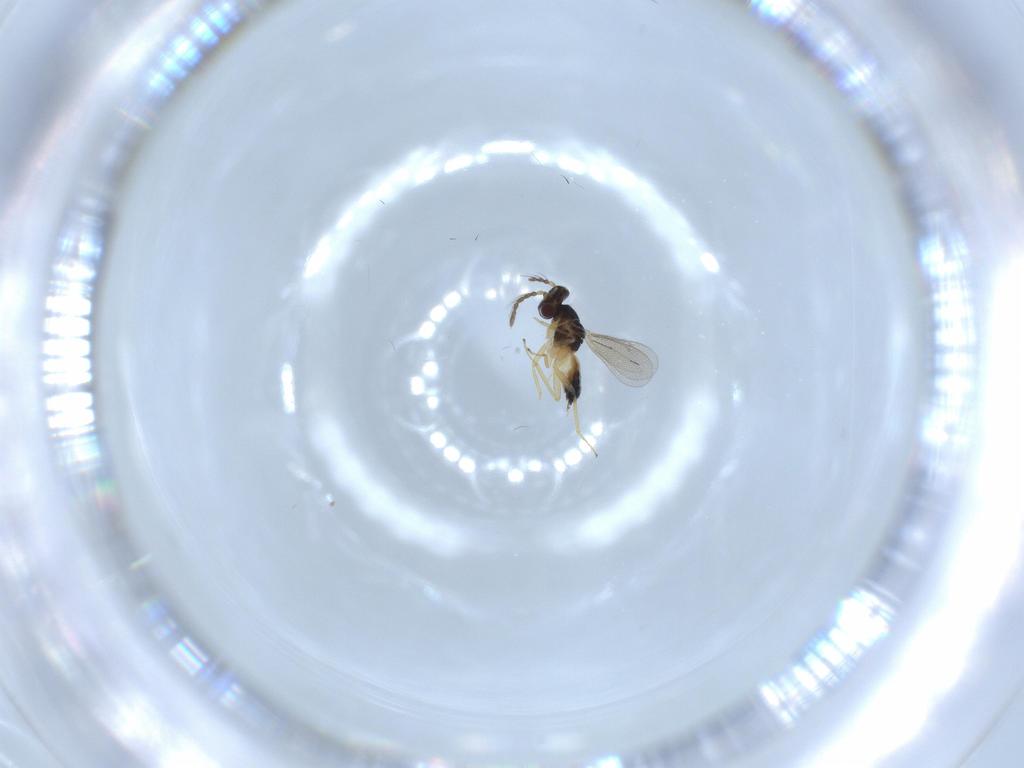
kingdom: Animalia
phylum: Arthropoda
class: Insecta
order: Hymenoptera
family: Eulophidae
